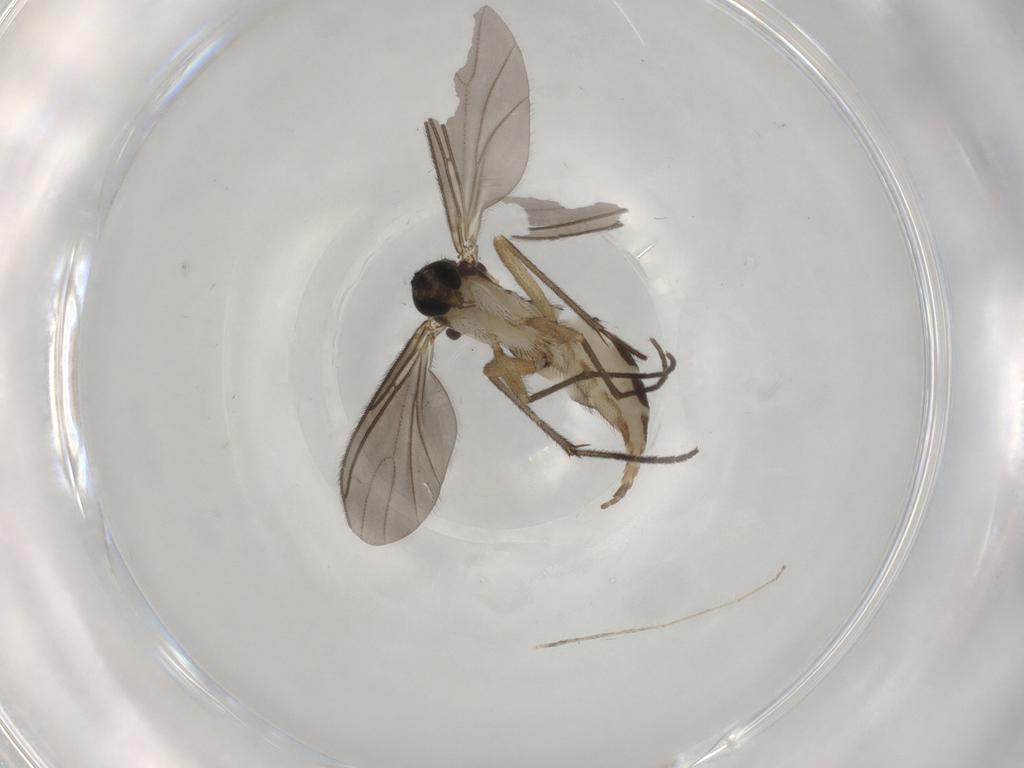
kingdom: Animalia
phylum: Arthropoda
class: Insecta
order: Diptera
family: Sciaridae
